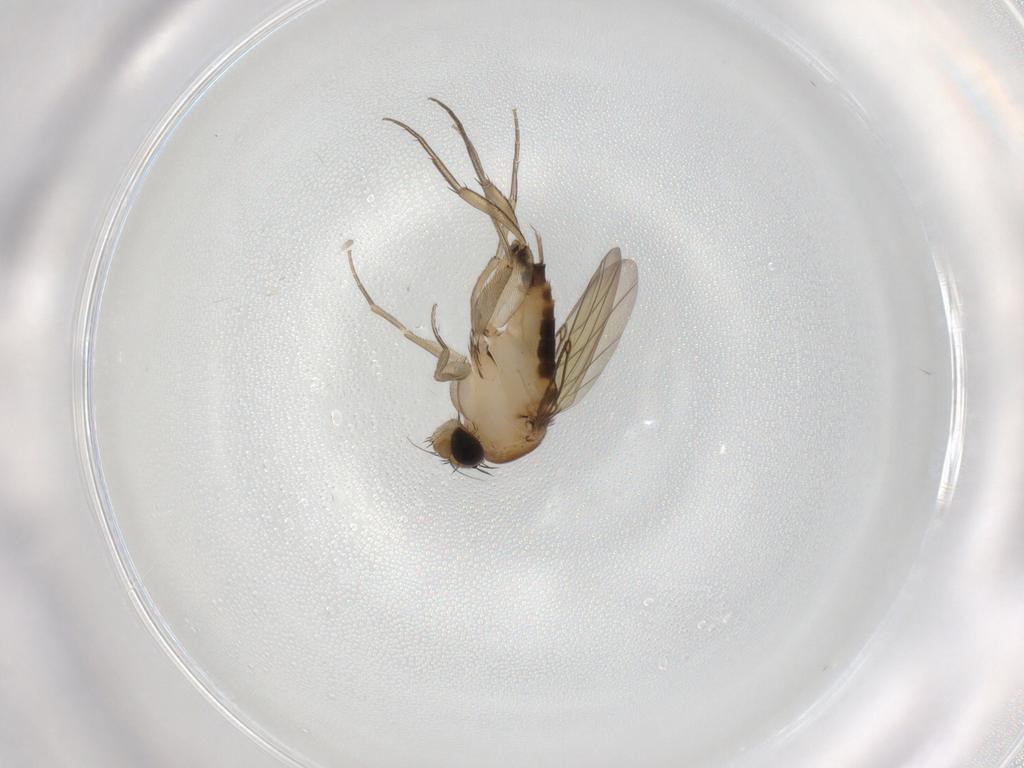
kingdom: Animalia
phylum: Arthropoda
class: Insecta
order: Diptera
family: Phoridae
